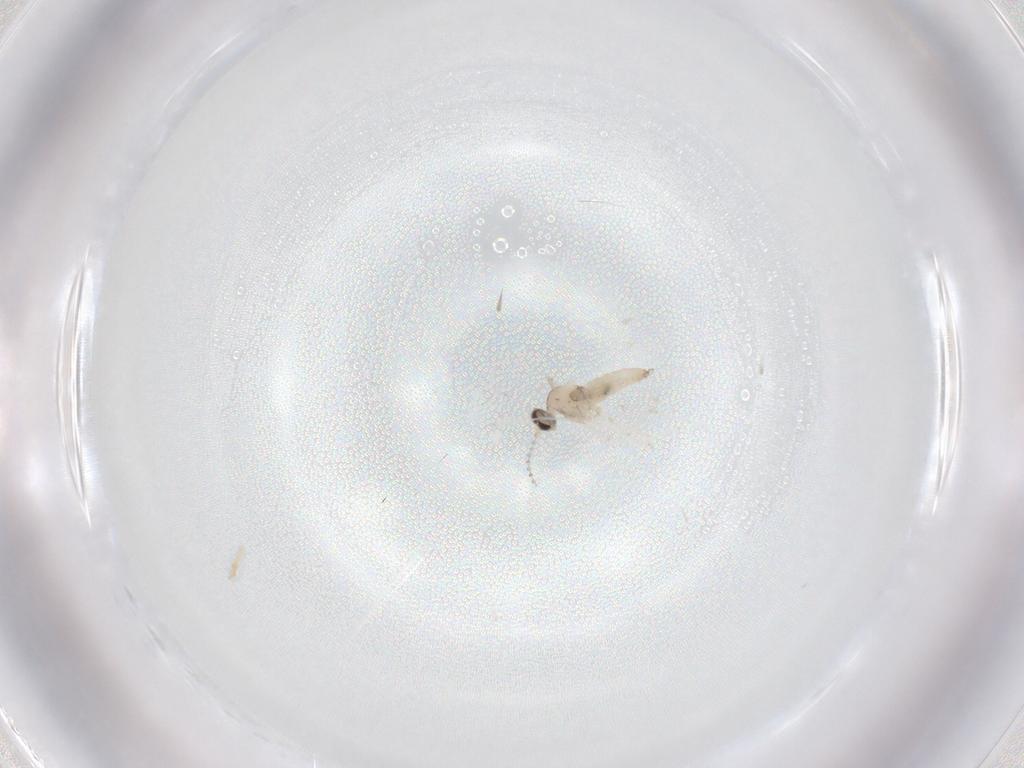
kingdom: Animalia
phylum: Arthropoda
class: Insecta
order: Diptera
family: Cecidomyiidae
